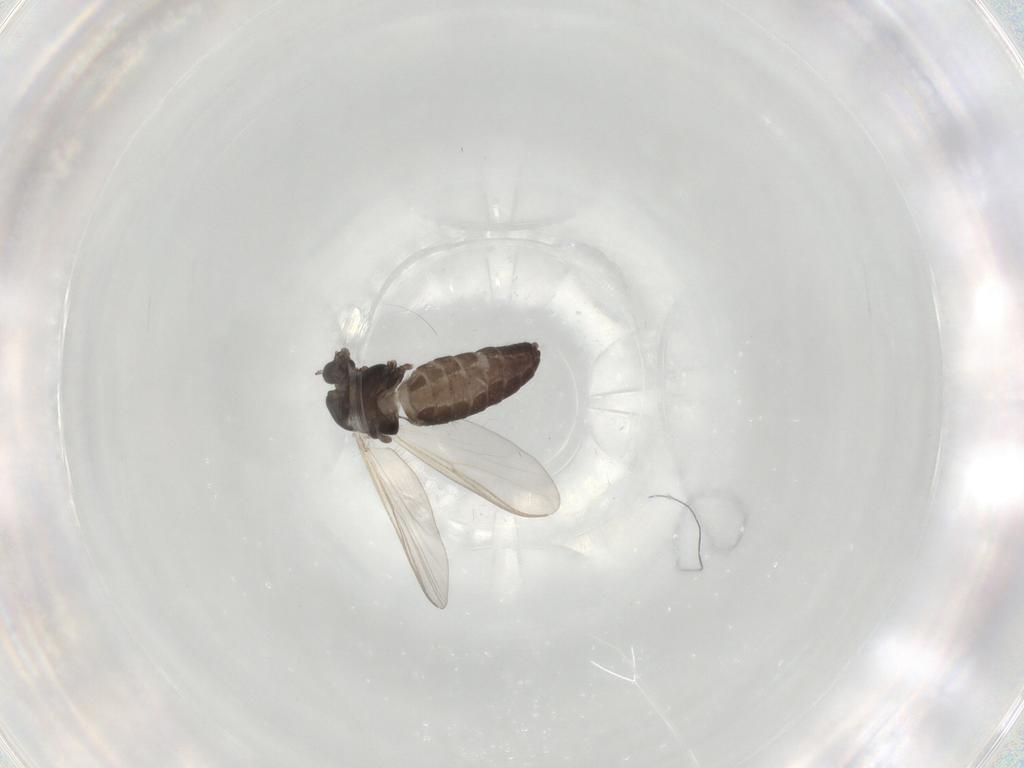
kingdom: Animalia
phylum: Arthropoda
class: Insecta
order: Diptera
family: Chironomidae
